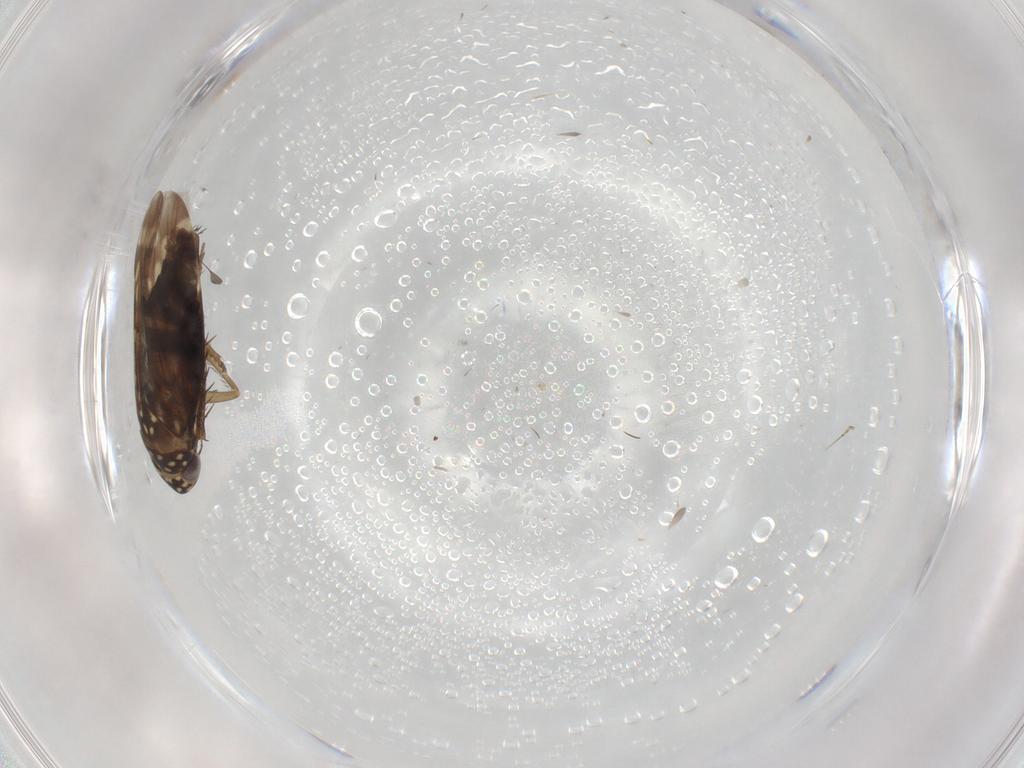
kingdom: Animalia
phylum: Arthropoda
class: Insecta
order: Hemiptera
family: Cicadellidae
